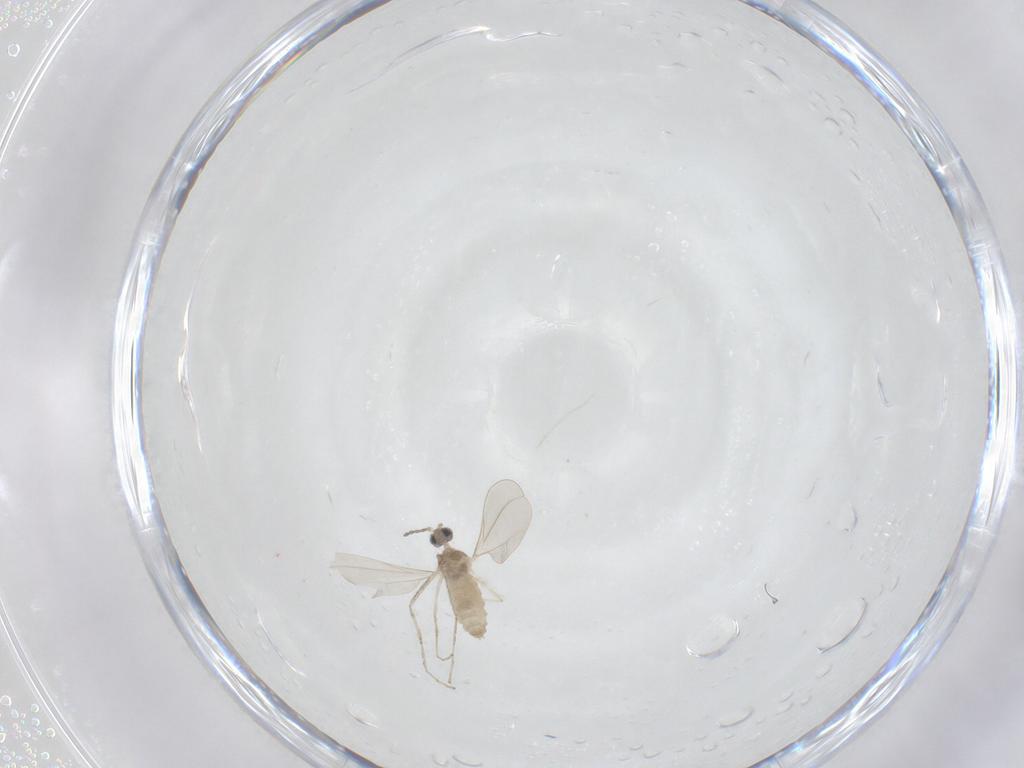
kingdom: Animalia
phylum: Arthropoda
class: Insecta
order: Diptera
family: Cecidomyiidae
